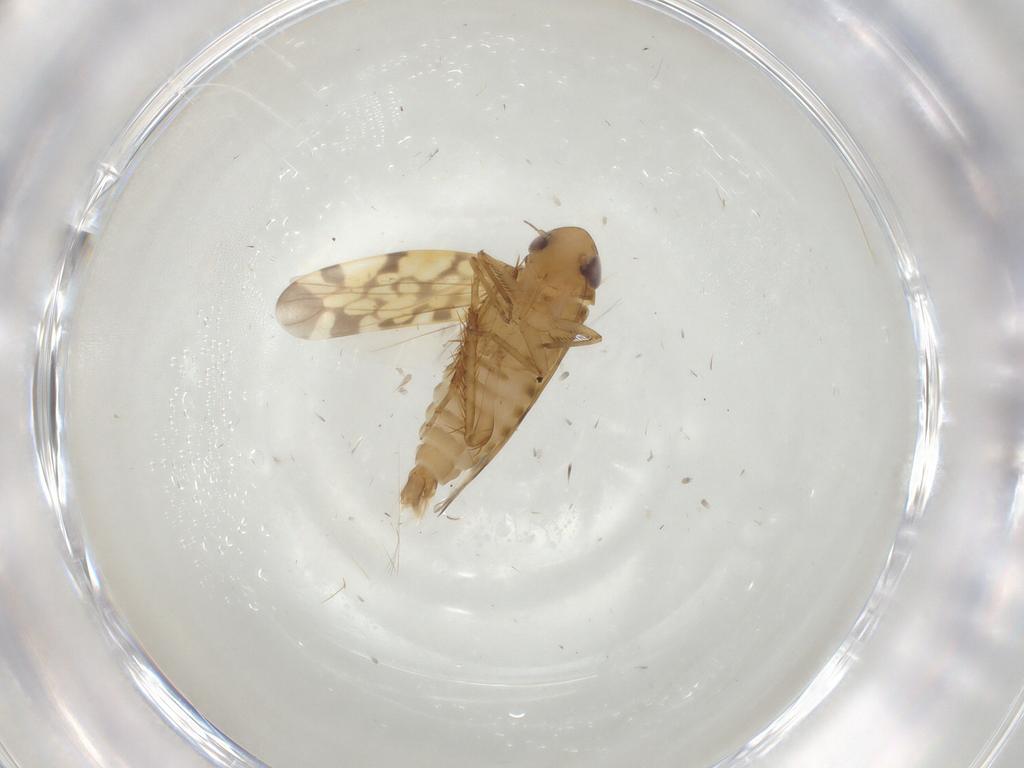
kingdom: Animalia
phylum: Arthropoda
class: Insecta
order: Hemiptera
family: Cicadellidae
